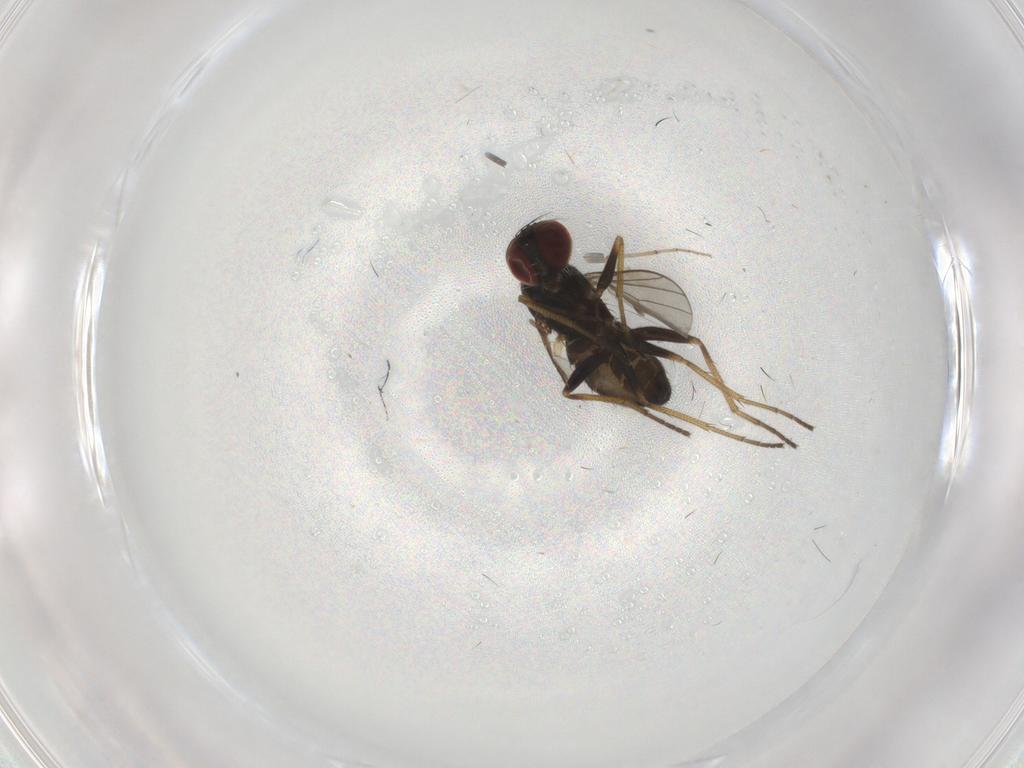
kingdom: Animalia
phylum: Arthropoda
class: Insecta
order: Diptera
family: Dolichopodidae
